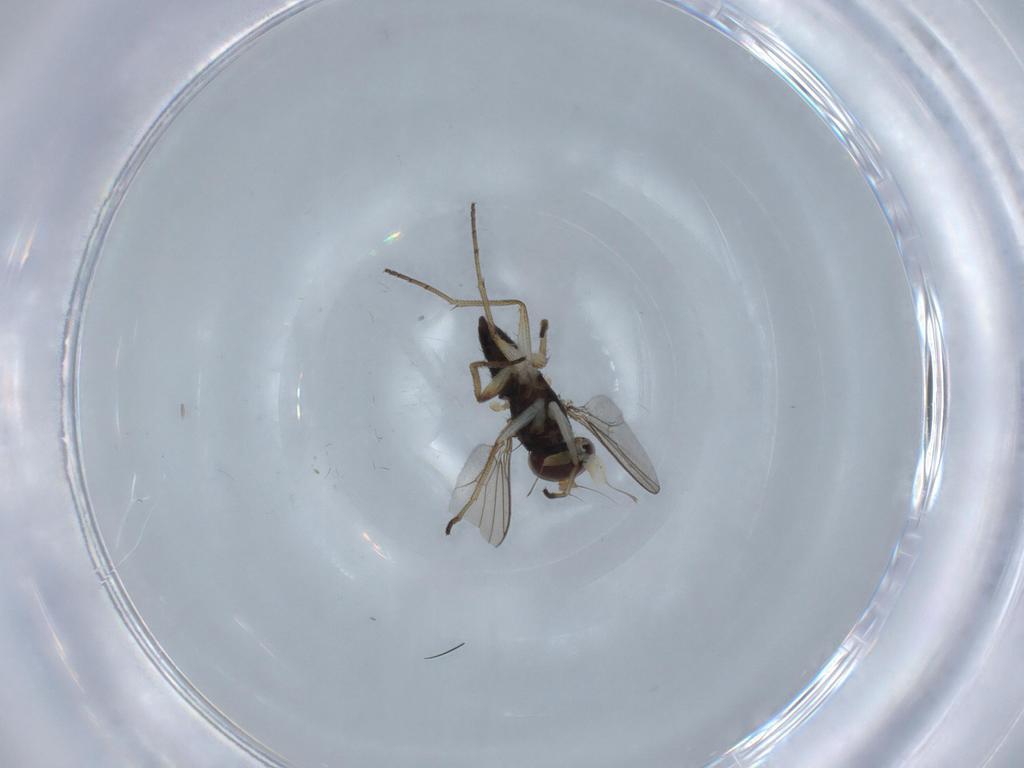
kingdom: Animalia
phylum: Arthropoda
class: Insecta
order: Diptera
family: Dolichopodidae
